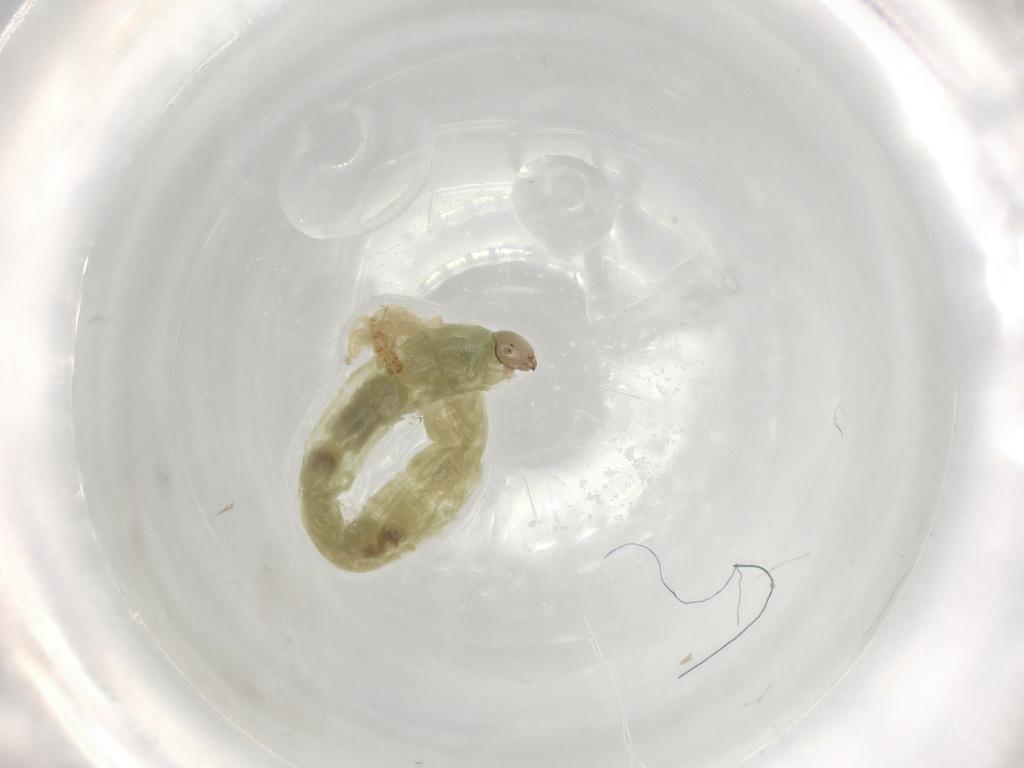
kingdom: Animalia
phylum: Arthropoda
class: Insecta
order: Diptera
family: Chironomidae
